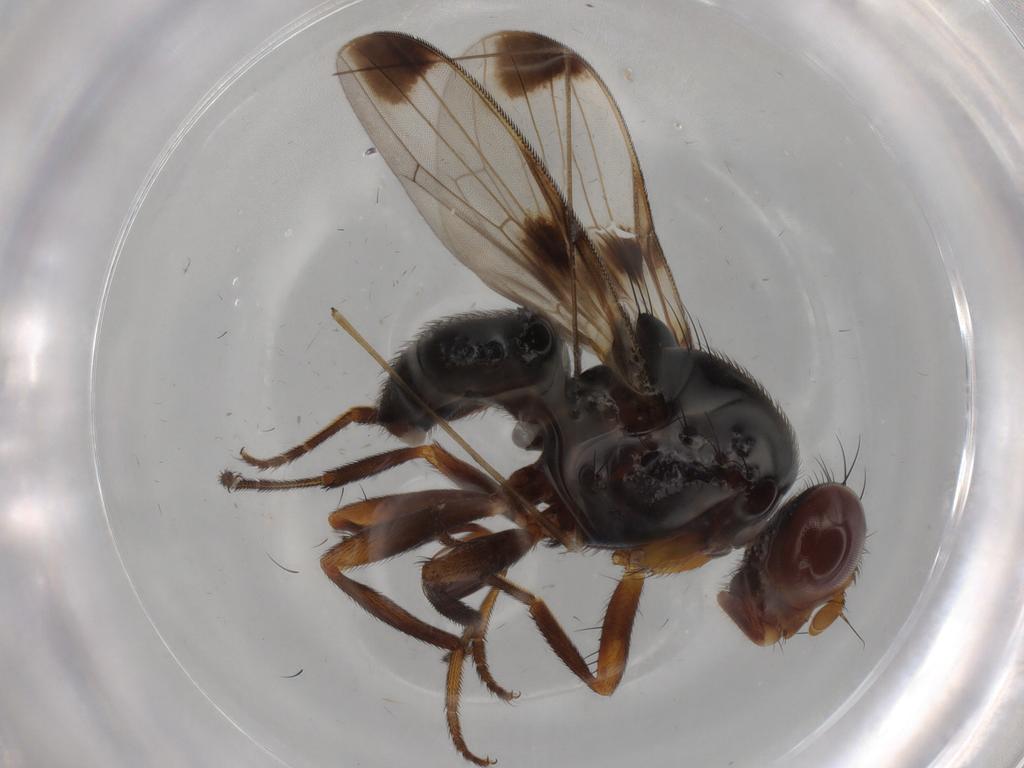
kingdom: Animalia
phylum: Arthropoda
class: Insecta
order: Diptera
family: Ulidiidae
